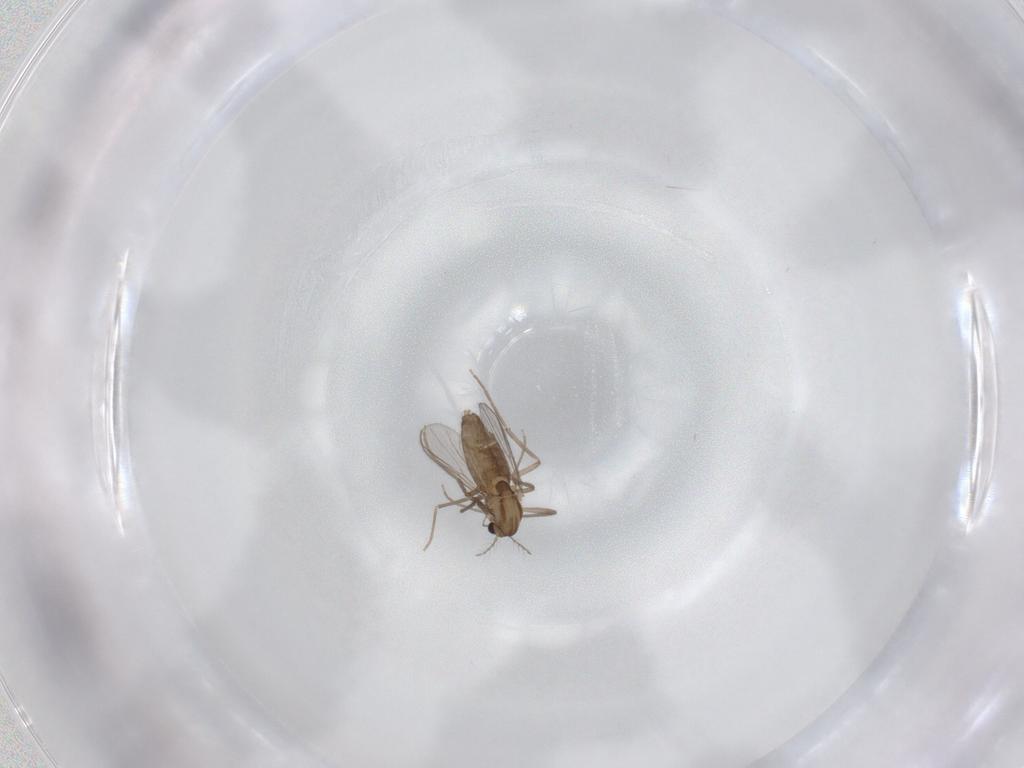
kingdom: Animalia
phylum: Arthropoda
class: Insecta
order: Diptera
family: Chironomidae
